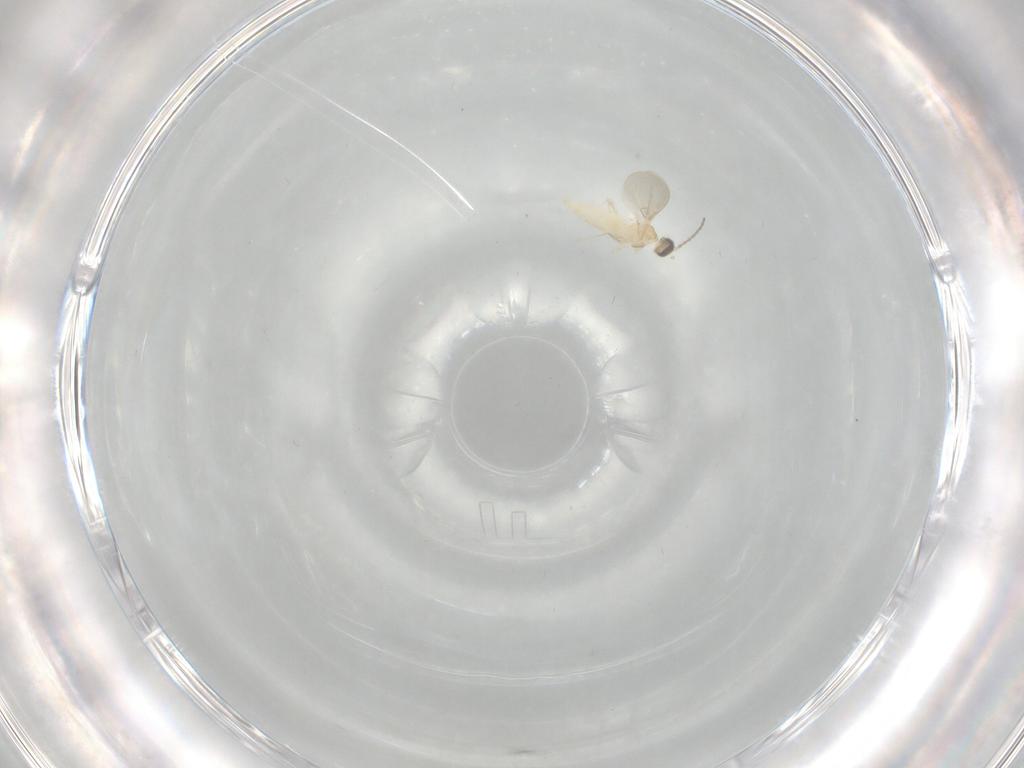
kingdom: Animalia
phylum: Arthropoda
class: Insecta
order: Diptera
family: Cecidomyiidae
